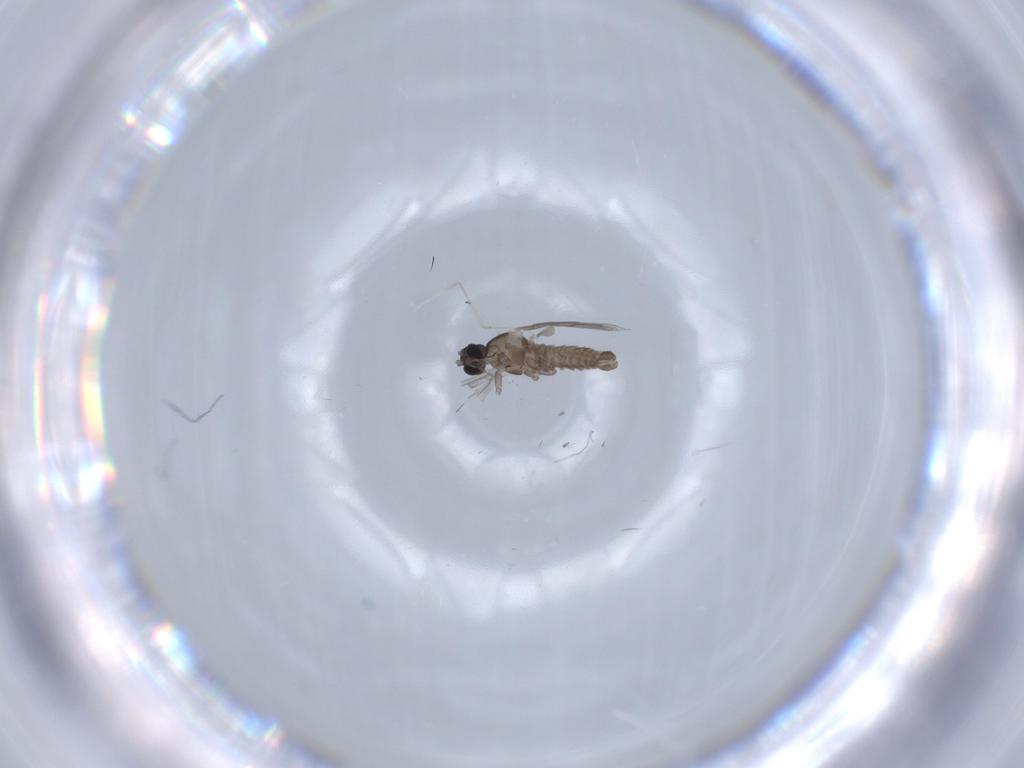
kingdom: Animalia
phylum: Arthropoda
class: Insecta
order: Diptera
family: Cecidomyiidae
